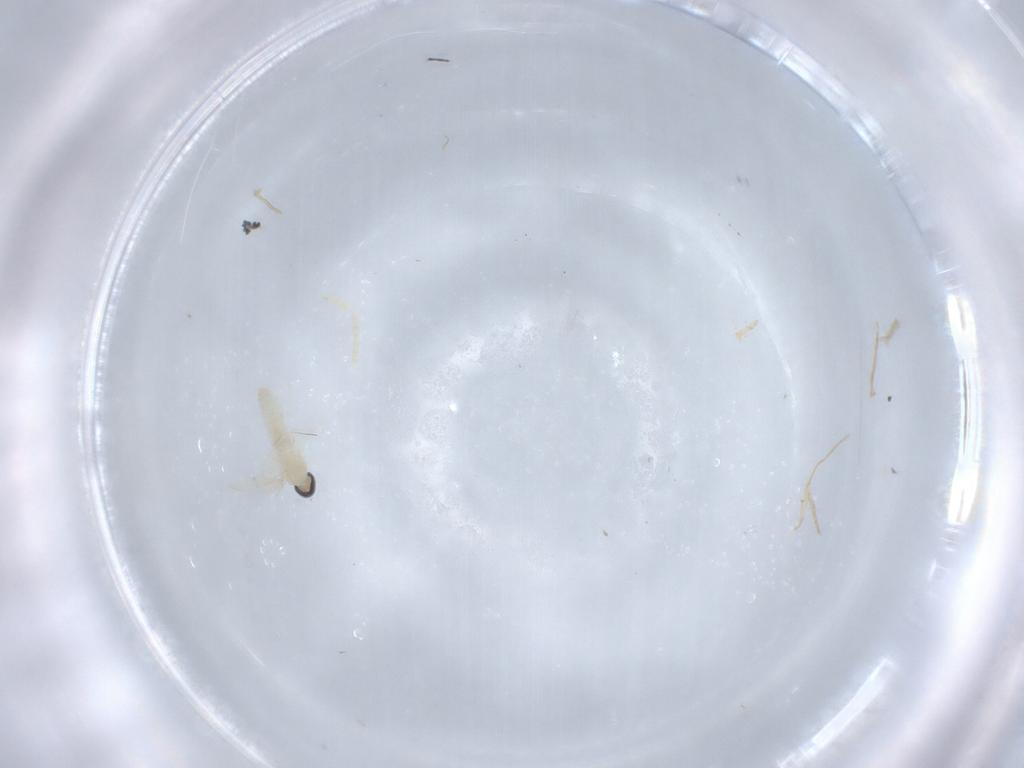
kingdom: Animalia
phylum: Arthropoda
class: Insecta
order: Diptera
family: Cecidomyiidae
